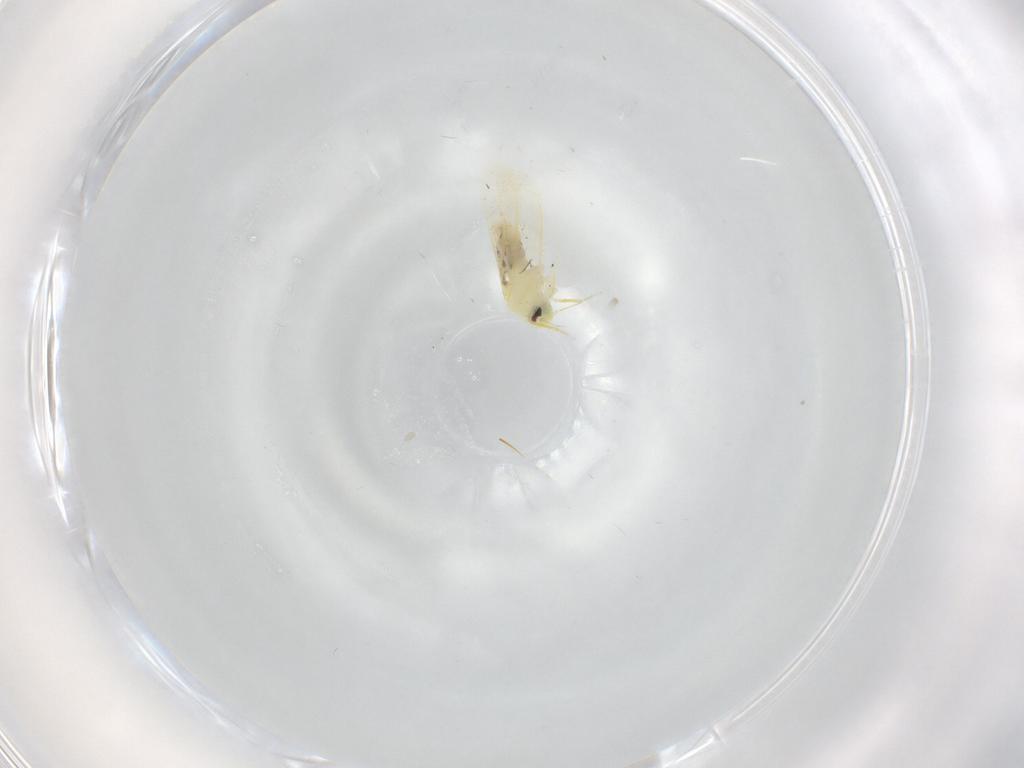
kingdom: Animalia
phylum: Arthropoda
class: Insecta
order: Hemiptera
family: Aleyrodidae
